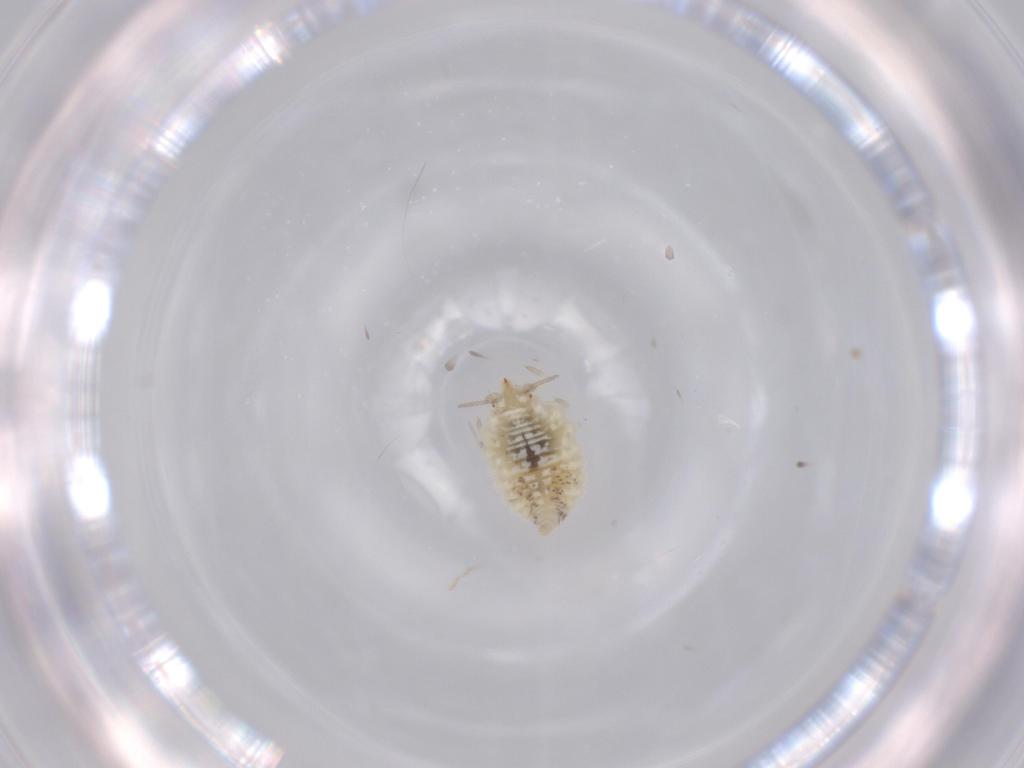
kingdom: Animalia
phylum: Arthropoda
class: Insecta
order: Neuroptera
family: Coniopterygidae
